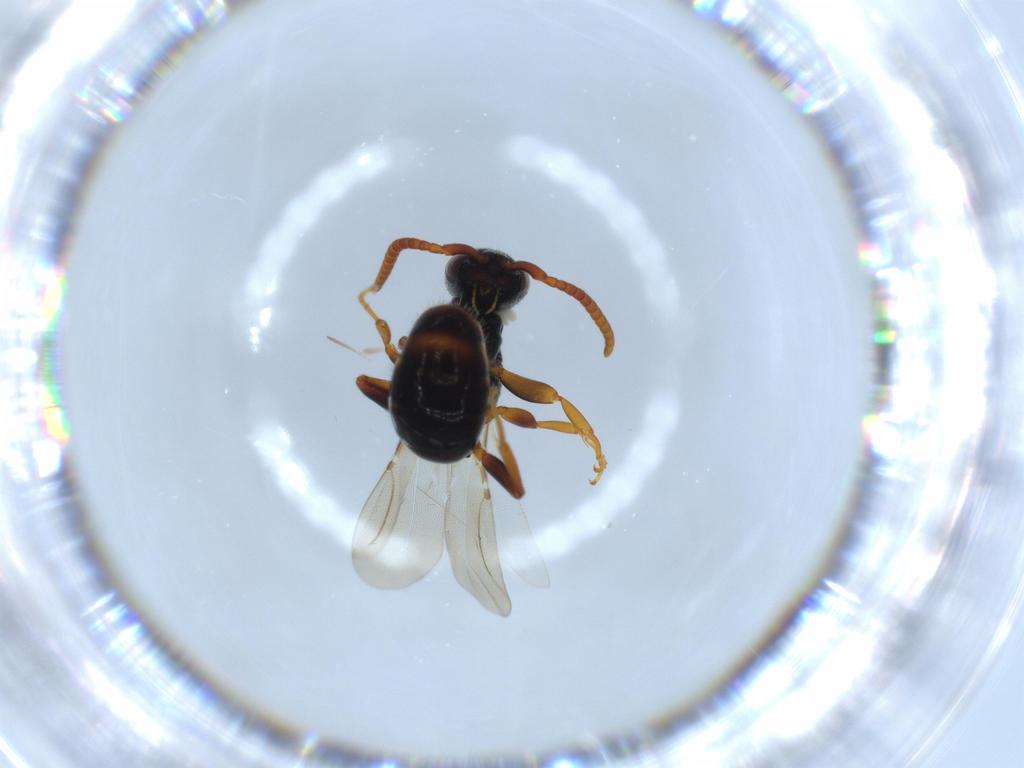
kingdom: Animalia
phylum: Arthropoda
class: Insecta
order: Hymenoptera
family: Bethylidae
